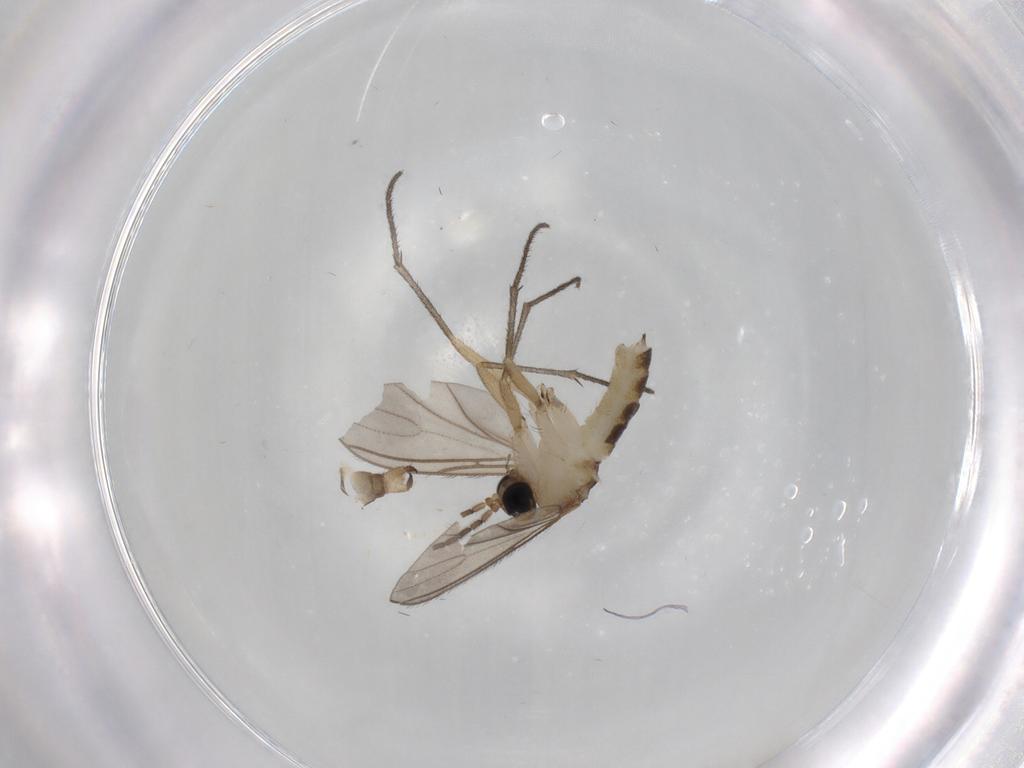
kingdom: Animalia
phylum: Arthropoda
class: Insecta
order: Diptera
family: Sciaridae
